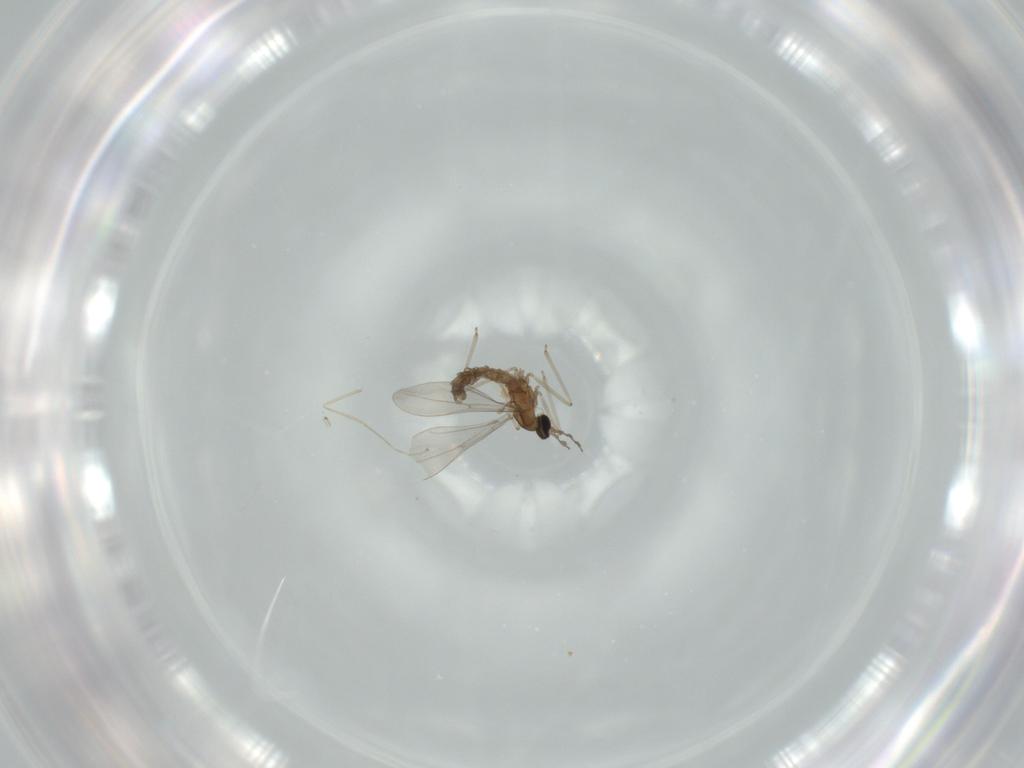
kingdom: Animalia
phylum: Arthropoda
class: Insecta
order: Diptera
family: Cecidomyiidae
